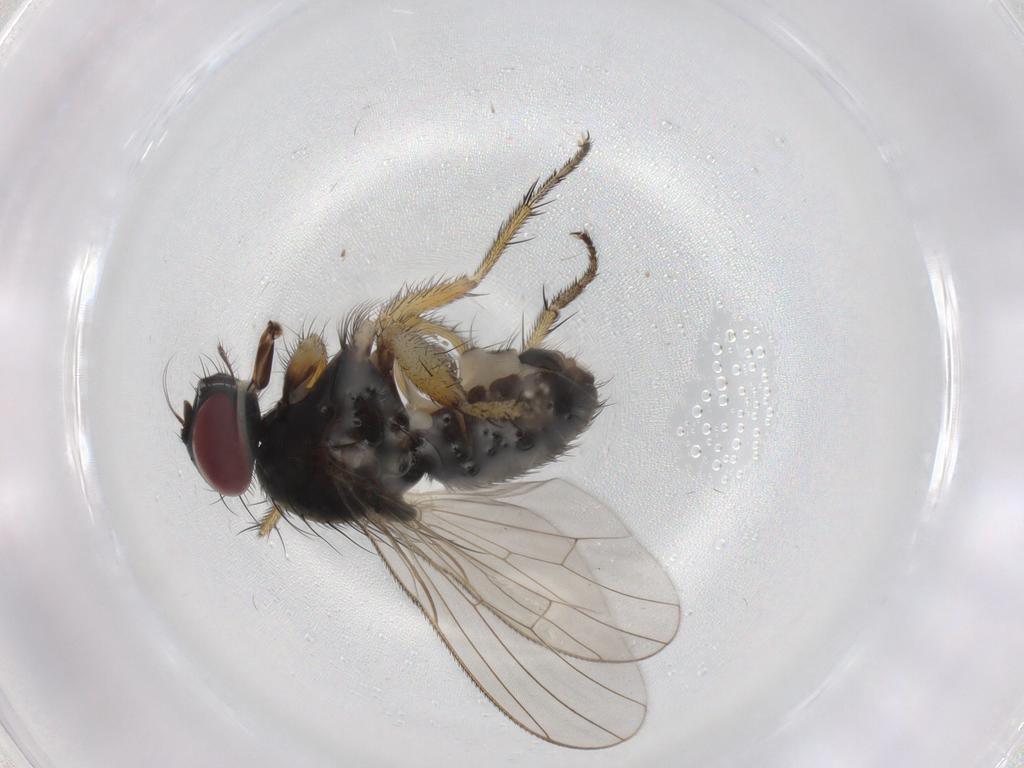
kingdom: Animalia
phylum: Arthropoda
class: Insecta
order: Diptera
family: Muscidae
